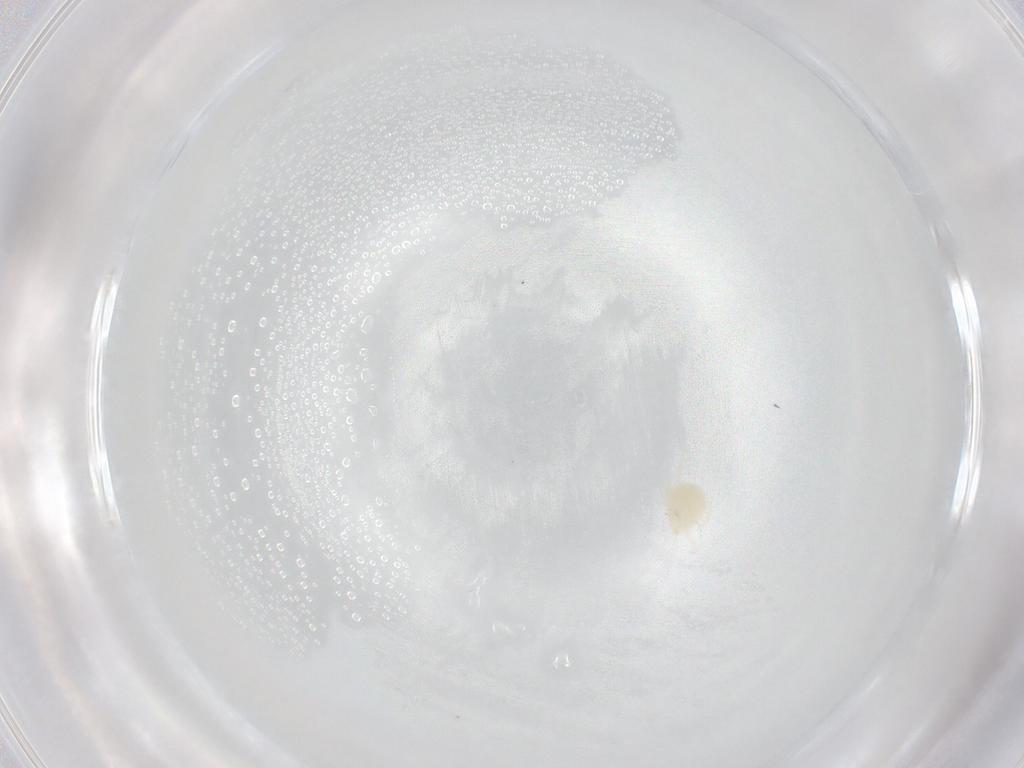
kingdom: Animalia
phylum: Arthropoda
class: Arachnida
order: Trombidiformes
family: Hydryphantidae
